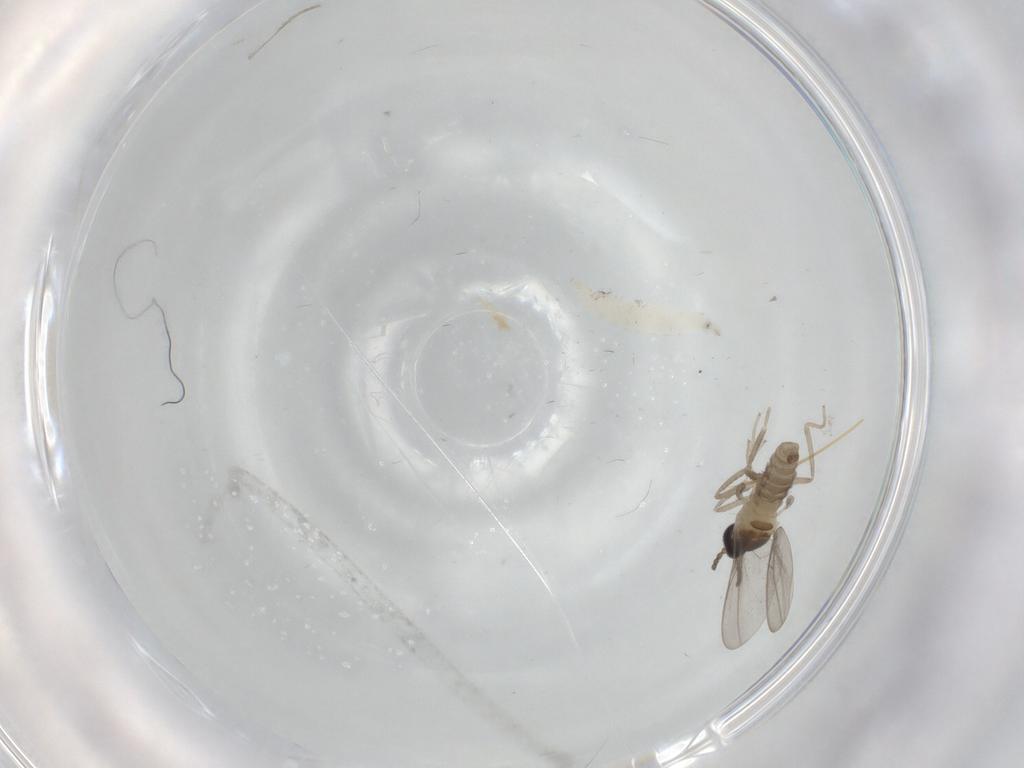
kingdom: Animalia
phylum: Arthropoda
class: Insecta
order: Diptera
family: Cecidomyiidae
